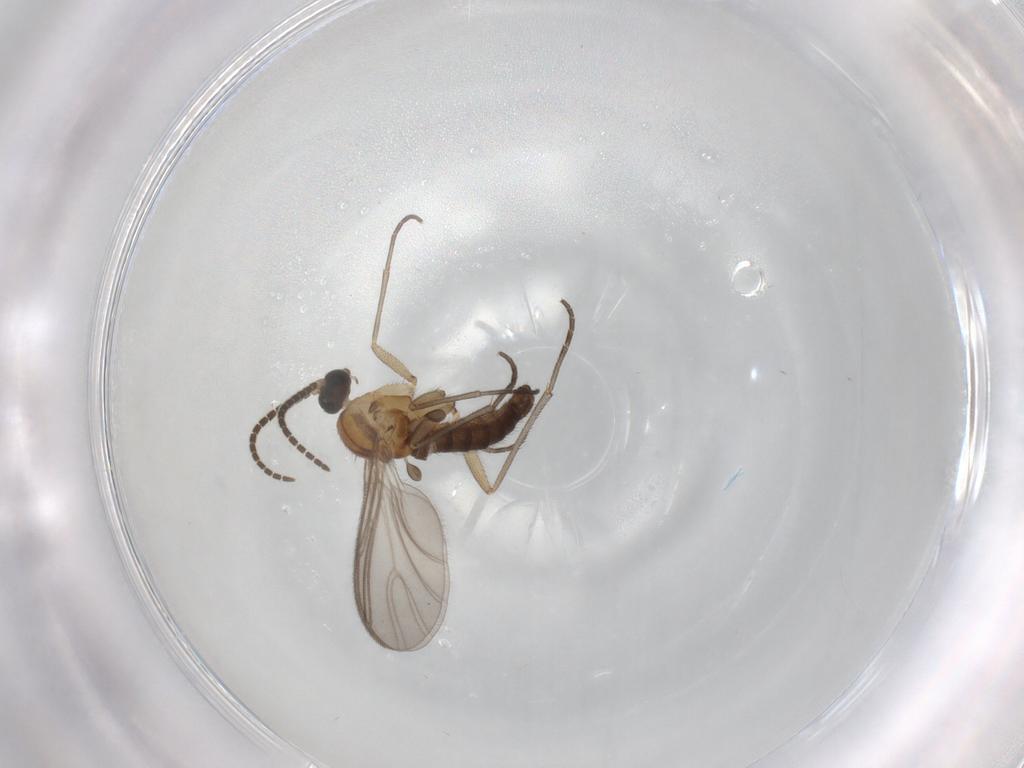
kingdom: Animalia
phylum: Arthropoda
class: Insecta
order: Diptera
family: Sciaridae
